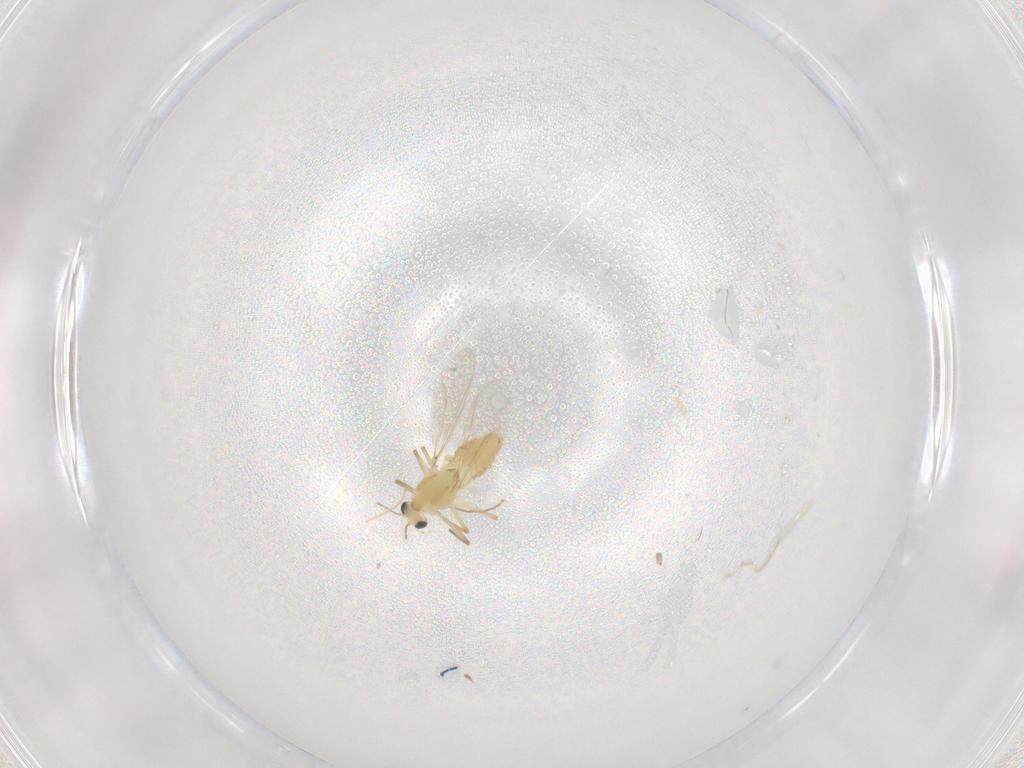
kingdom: Animalia
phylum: Arthropoda
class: Insecta
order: Diptera
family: Chironomidae
